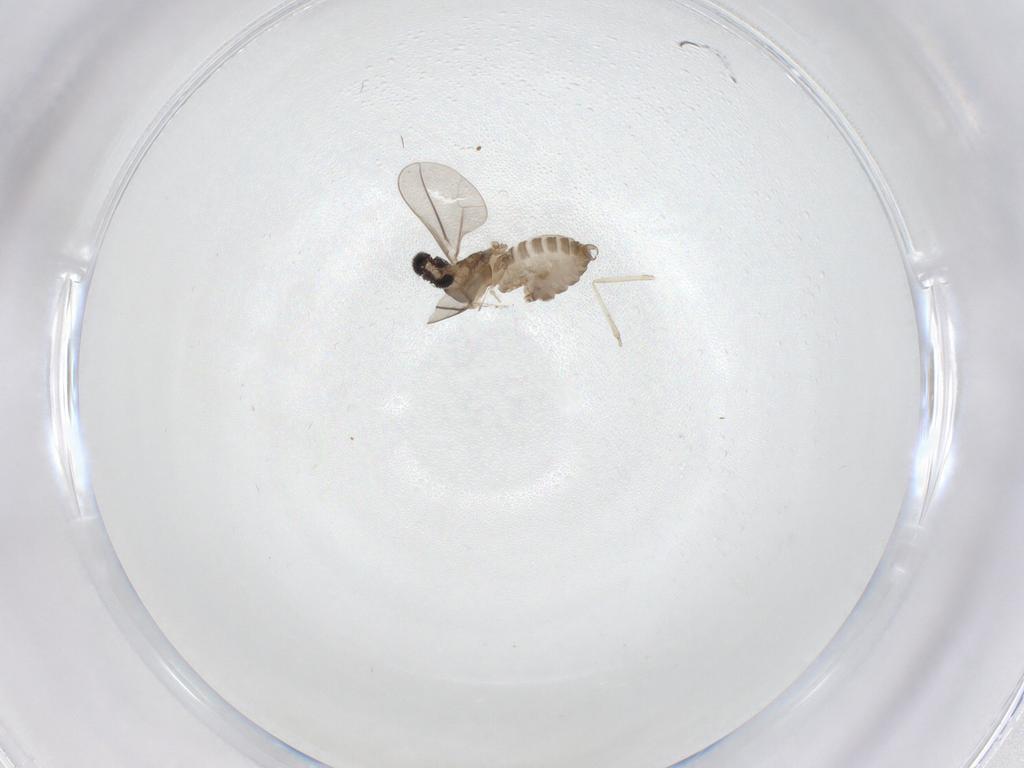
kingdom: Animalia
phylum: Arthropoda
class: Insecta
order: Diptera
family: Cecidomyiidae
